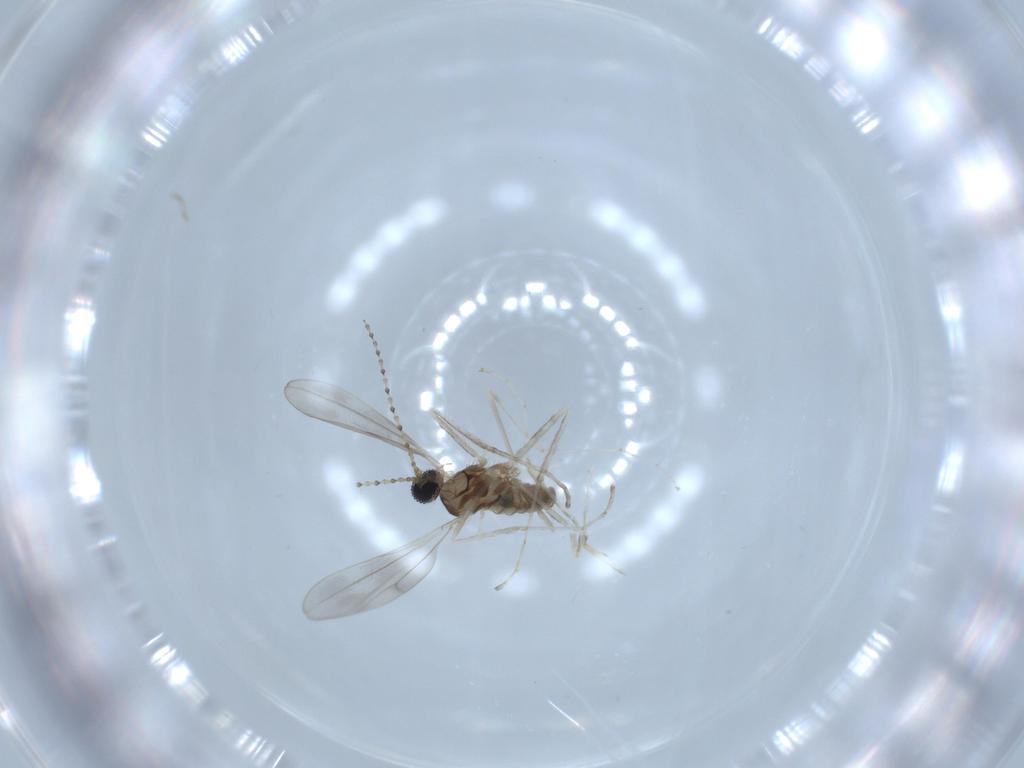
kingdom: Animalia
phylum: Arthropoda
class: Insecta
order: Diptera
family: Cecidomyiidae
